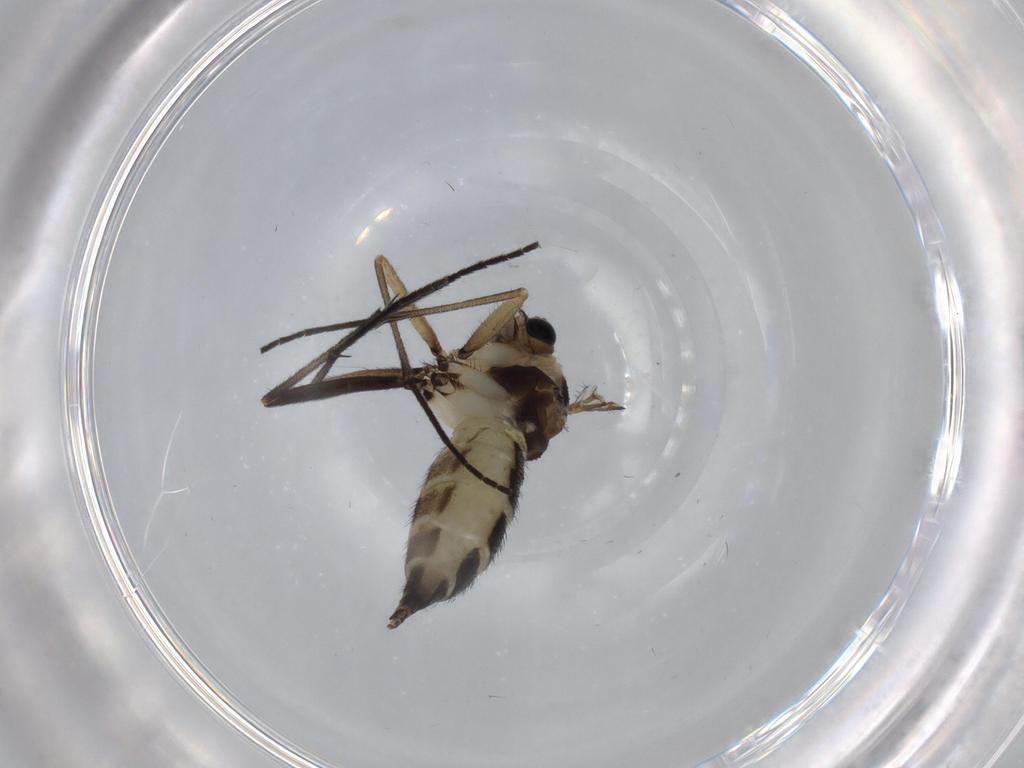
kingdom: Animalia
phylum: Arthropoda
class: Insecta
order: Diptera
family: Sciaridae
